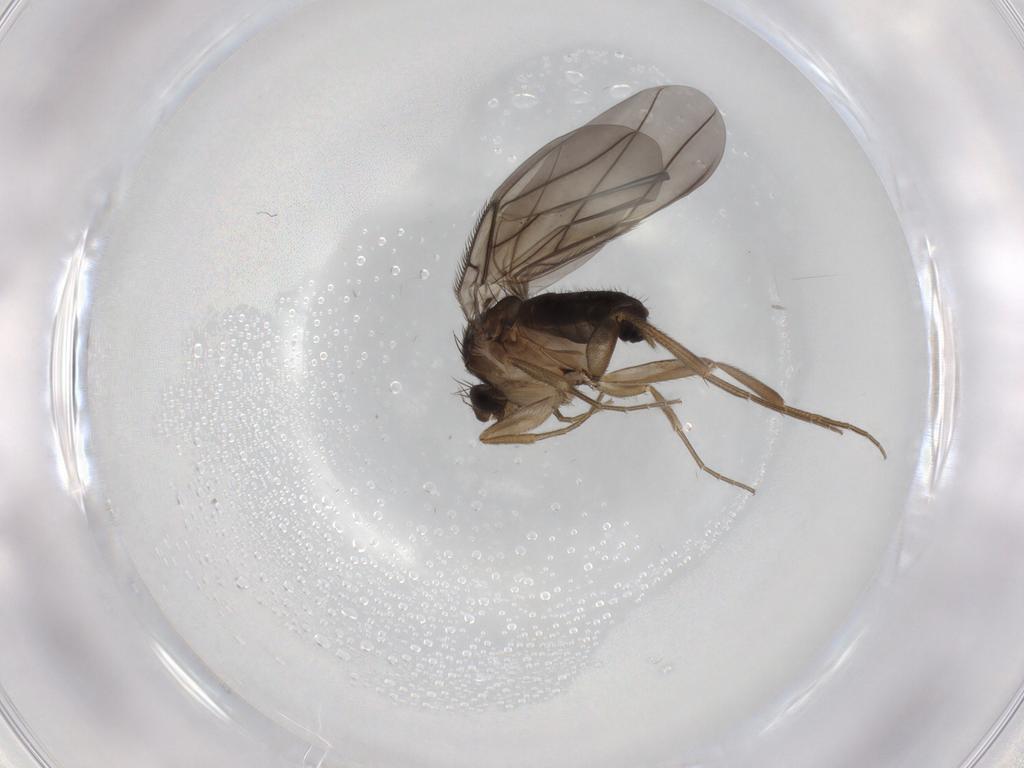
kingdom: Animalia
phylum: Arthropoda
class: Insecta
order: Diptera
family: Phoridae
